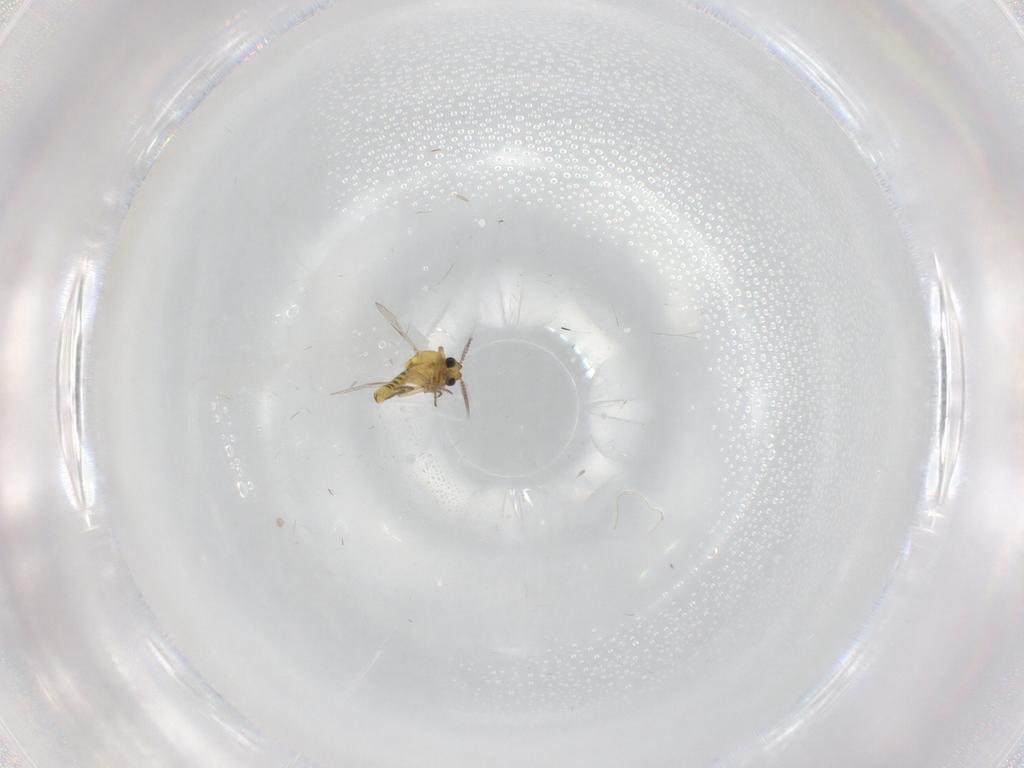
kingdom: Animalia
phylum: Arthropoda
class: Insecta
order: Diptera
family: Ceratopogonidae
